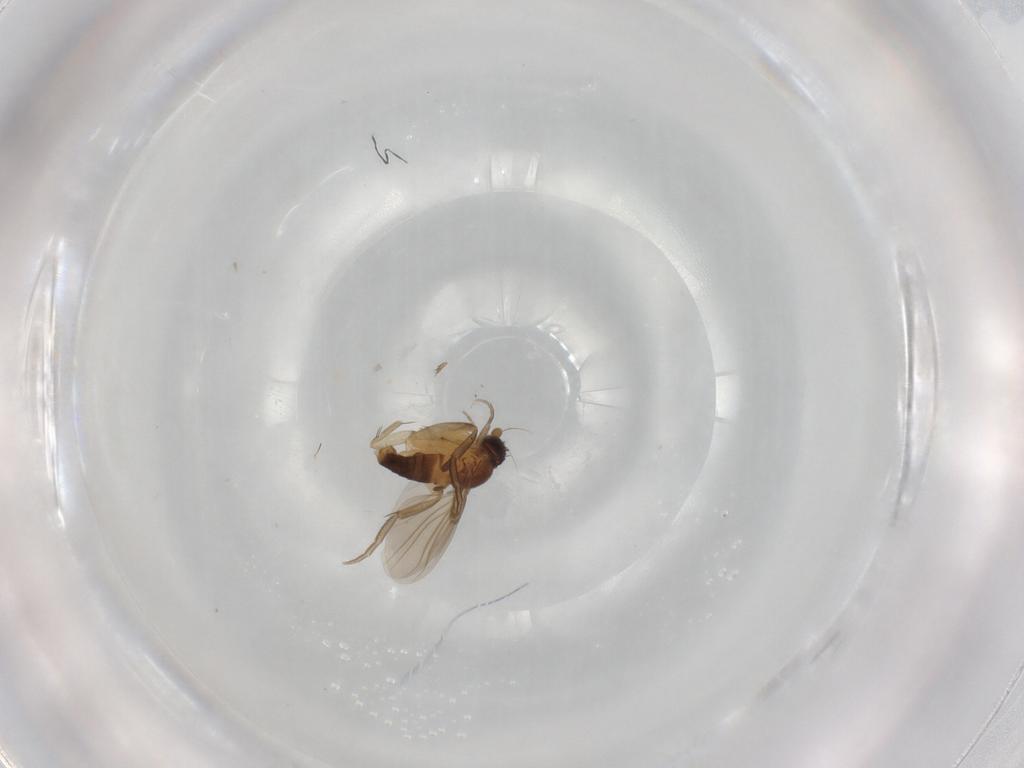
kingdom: Animalia
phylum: Arthropoda
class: Insecta
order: Diptera
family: Phoridae
